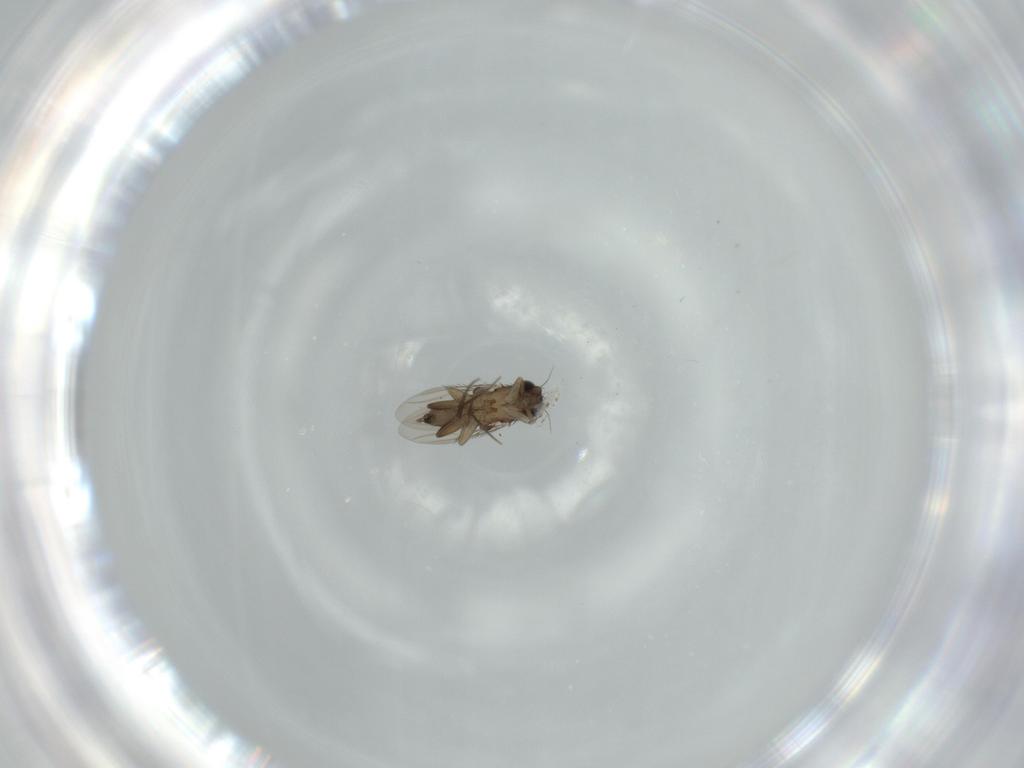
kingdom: Animalia
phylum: Arthropoda
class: Insecta
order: Diptera
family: Phoridae
